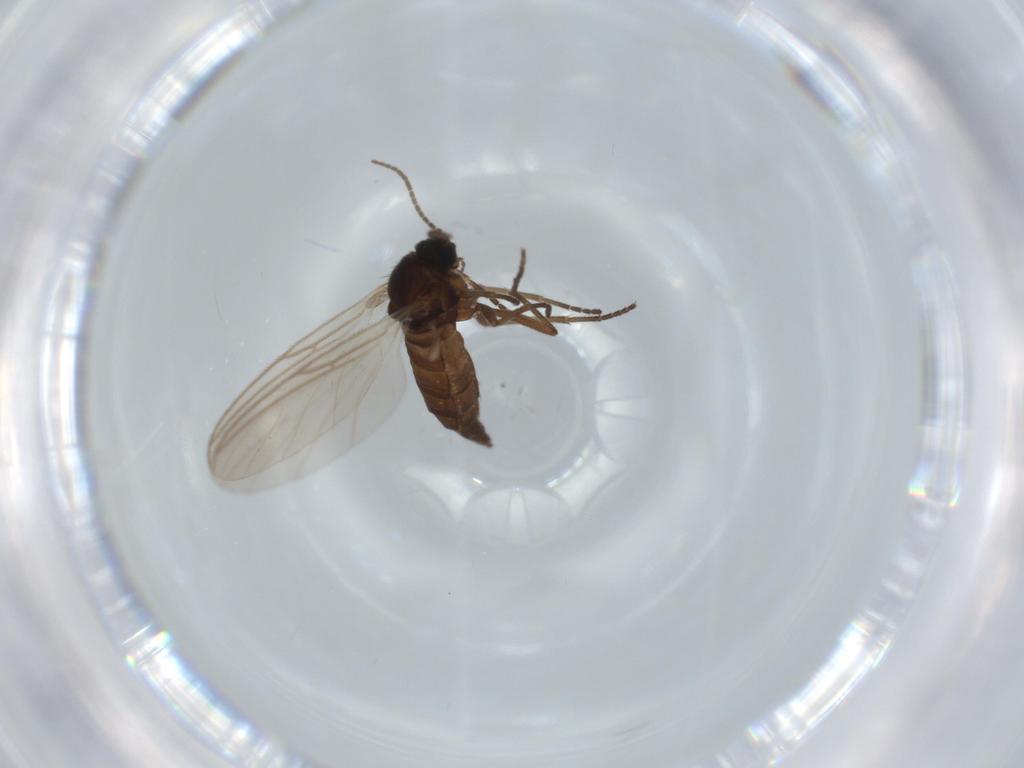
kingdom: Animalia
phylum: Arthropoda
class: Insecta
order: Diptera
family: Sciaridae
